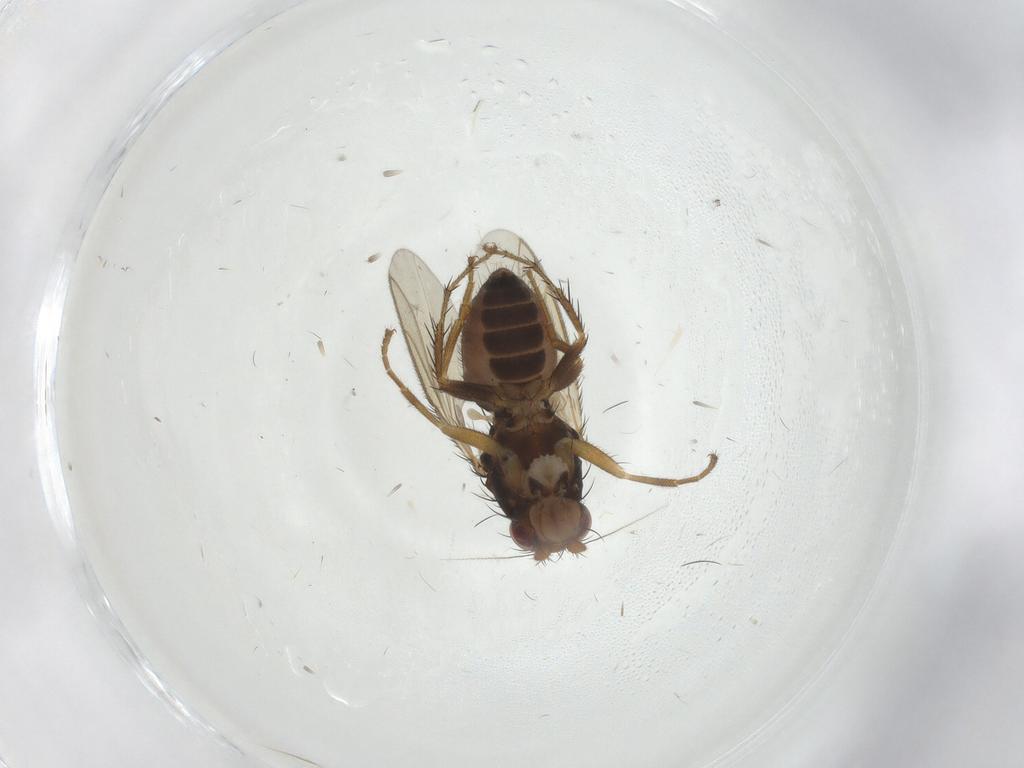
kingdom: Animalia
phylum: Arthropoda
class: Insecta
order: Diptera
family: Sphaeroceridae
